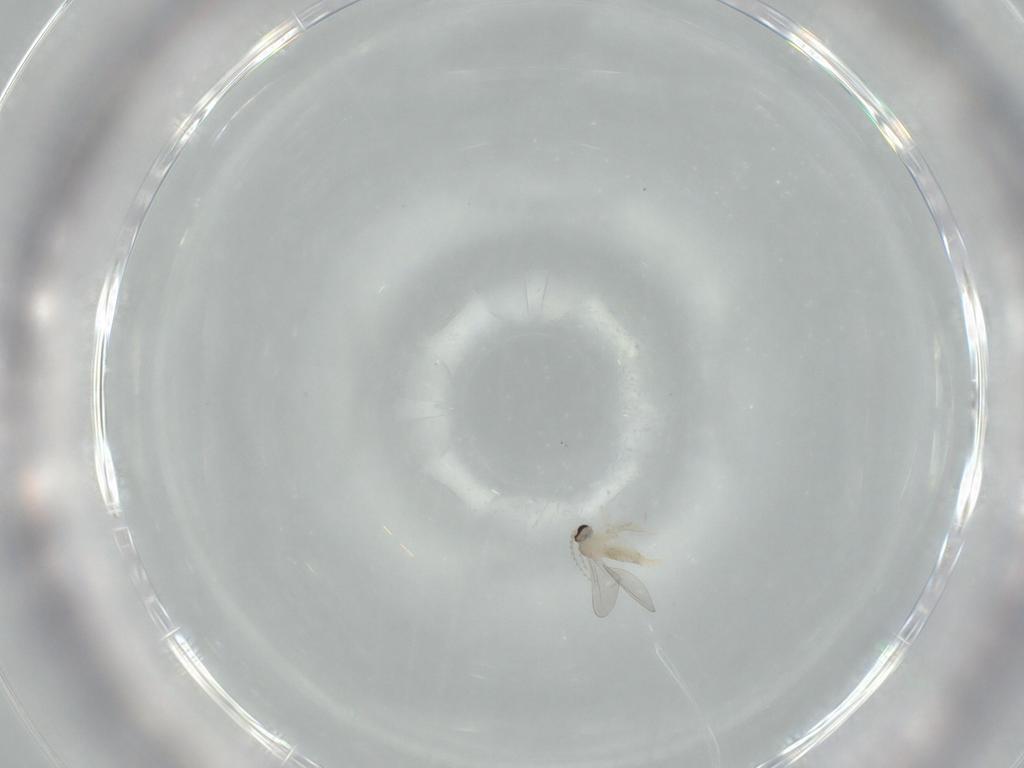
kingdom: Animalia
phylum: Arthropoda
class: Insecta
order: Diptera
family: Cecidomyiidae
